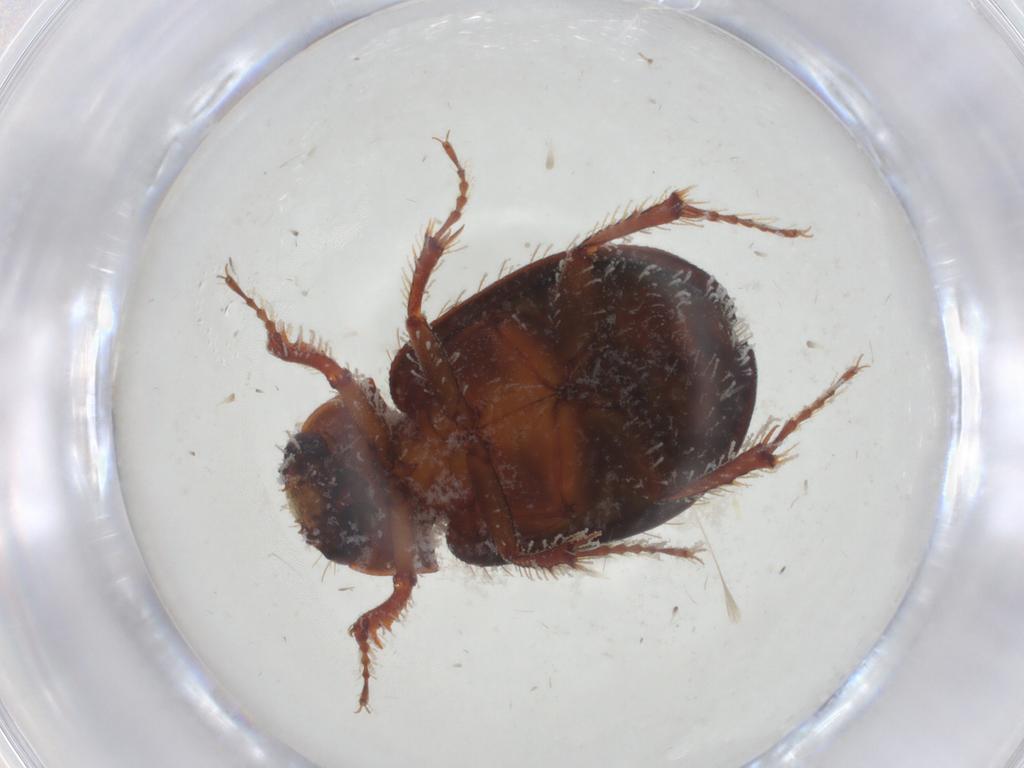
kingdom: Animalia
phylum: Arthropoda
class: Insecta
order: Coleoptera
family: Hybosoridae
